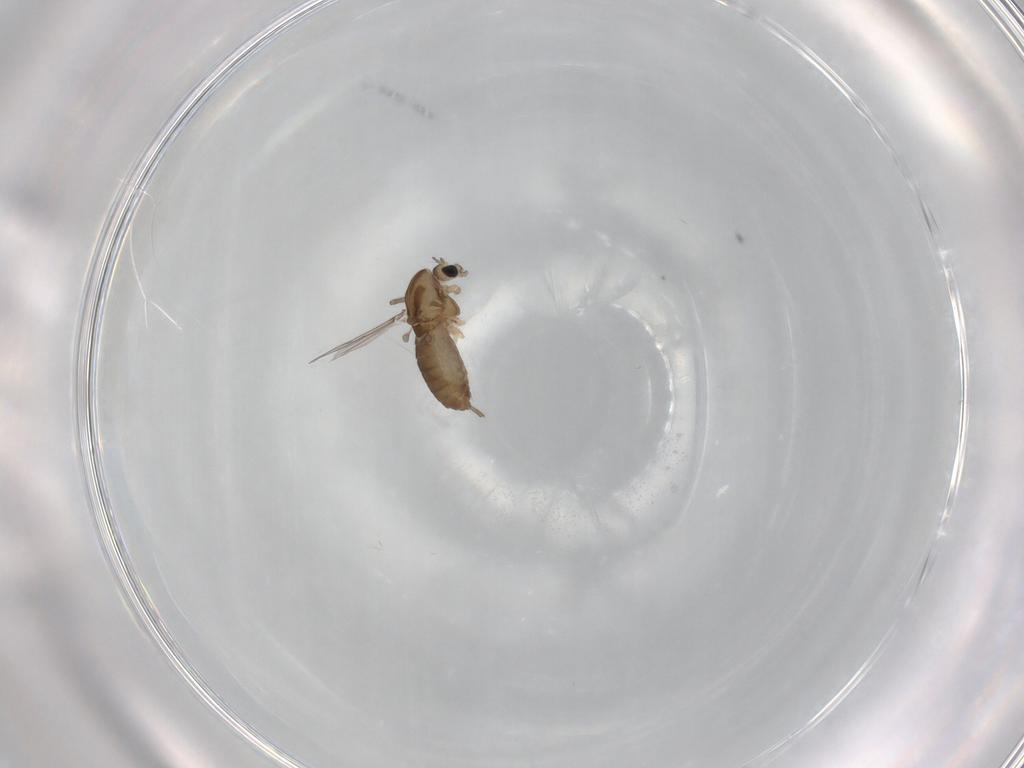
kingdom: Animalia
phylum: Arthropoda
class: Insecta
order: Diptera
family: Chironomidae
